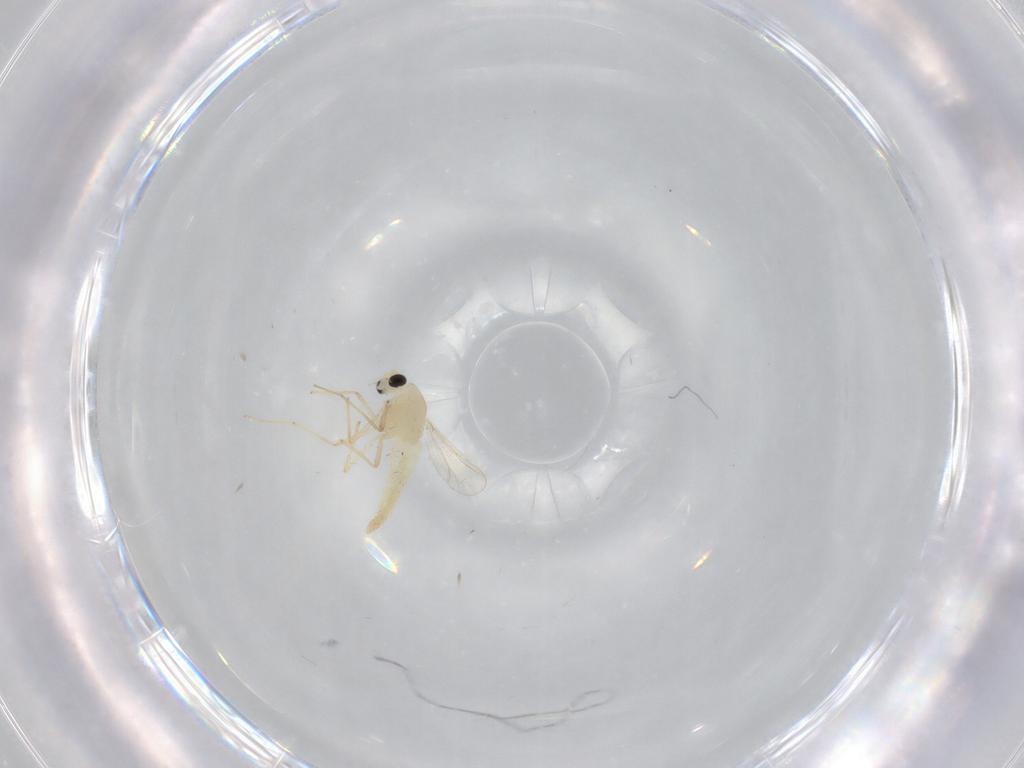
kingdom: Animalia
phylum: Arthropoda
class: Insecta
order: Diptera
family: Chironomidae
